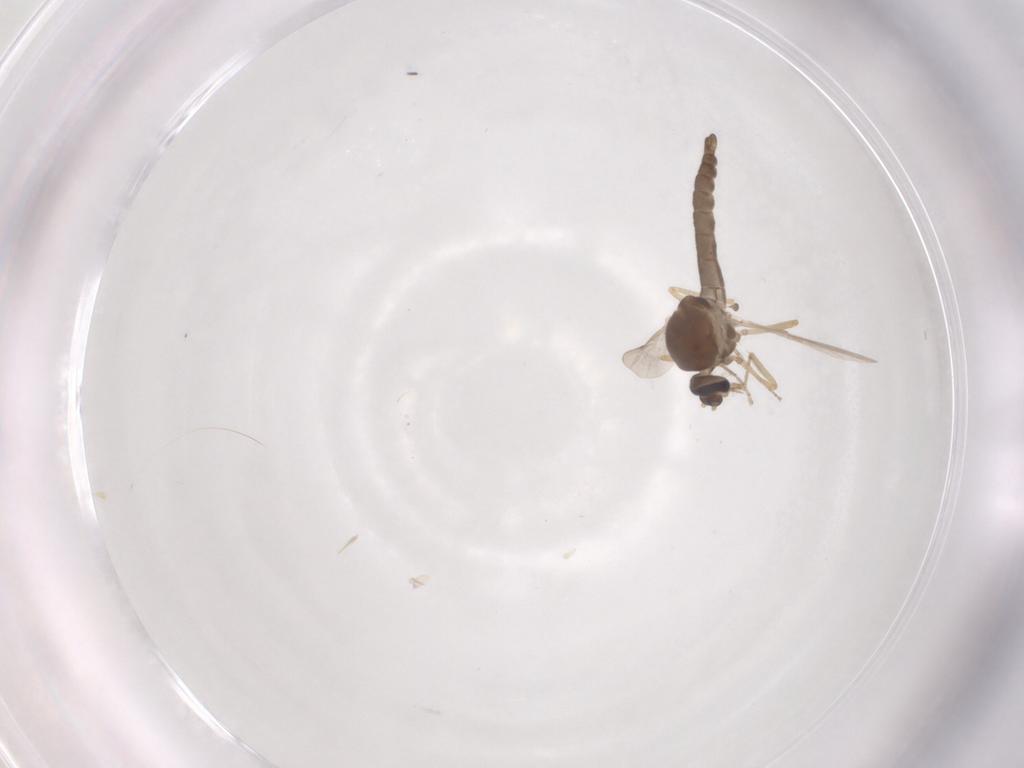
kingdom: Animalia
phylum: Arthropoda
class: Insecta
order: Diptera
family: Ceratopogonidae
